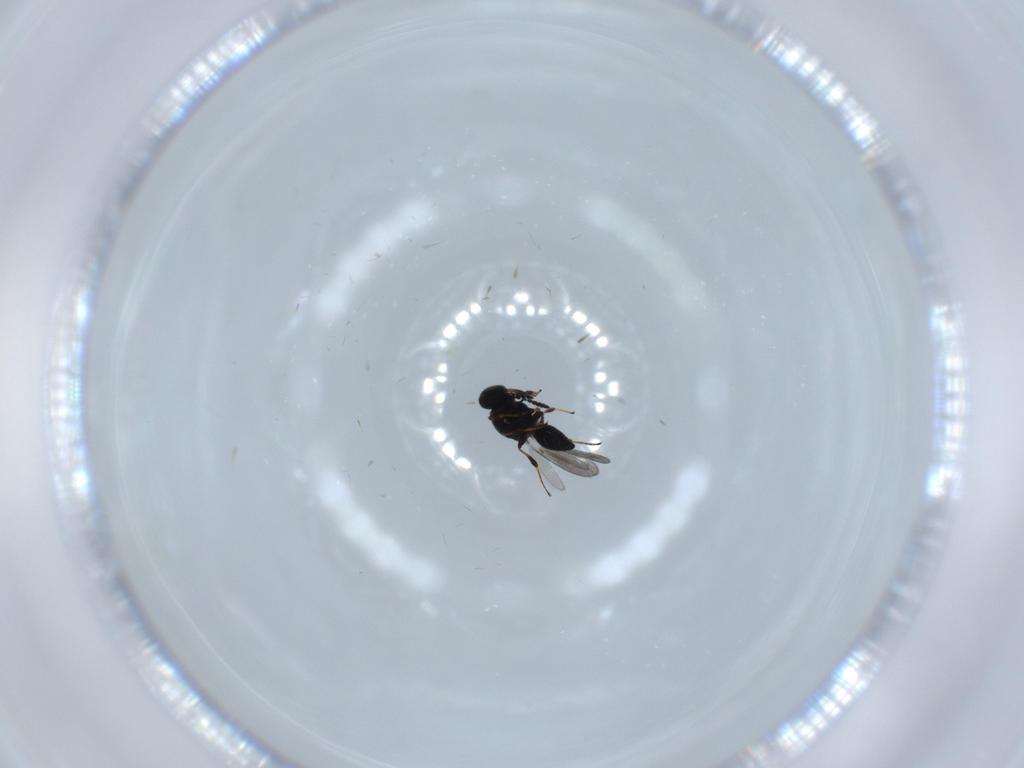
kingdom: Animalia
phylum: Arthropoda
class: Insecta
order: Hymenoptera
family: Platygastridae
